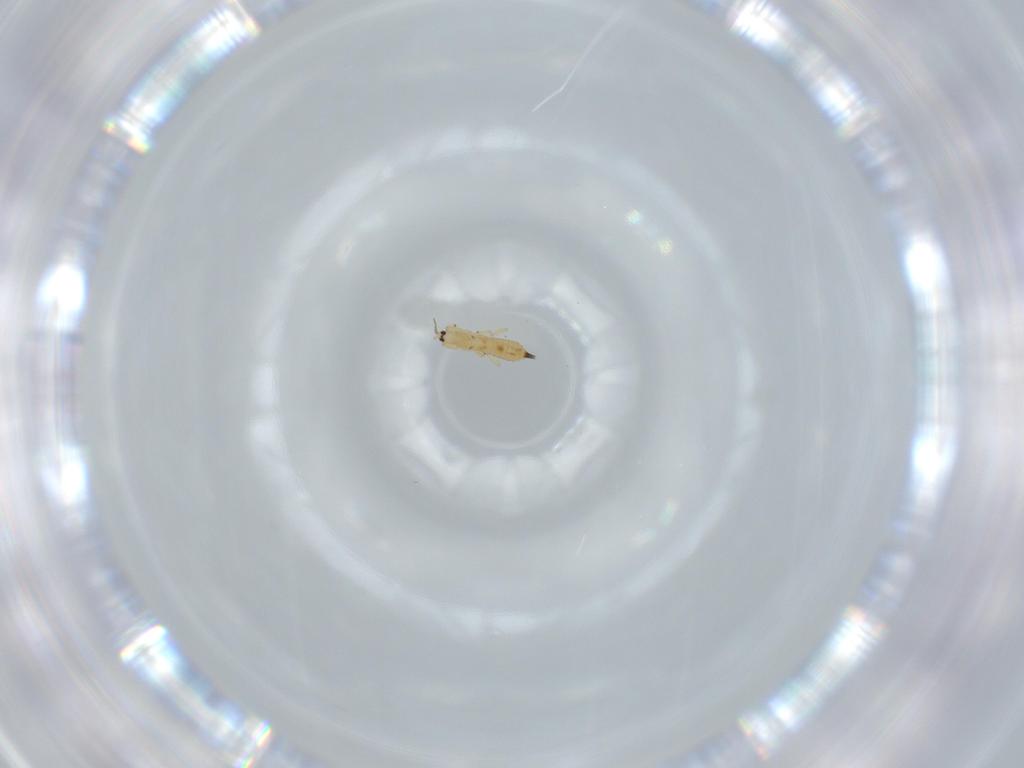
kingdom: Animalia
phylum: Arthropoda
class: Insecta
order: Thysanoptera
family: Phlaeothripidae
